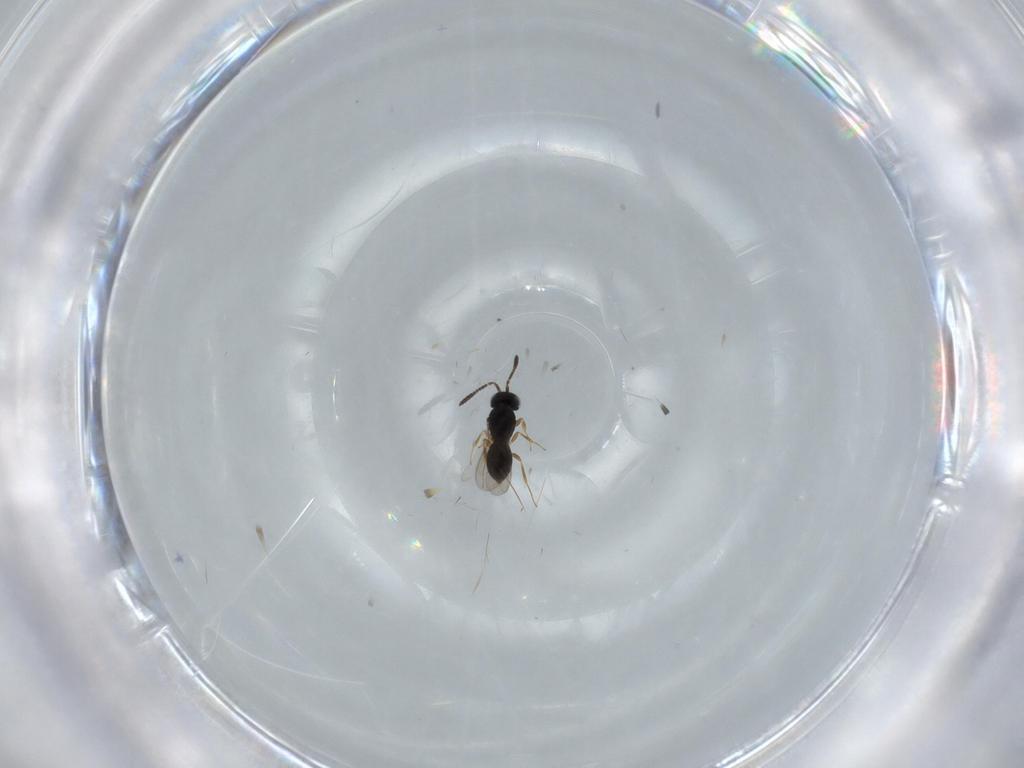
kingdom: Animalia
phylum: Arthropoda
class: Insecta
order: Hymenoptera
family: Scelionidae
